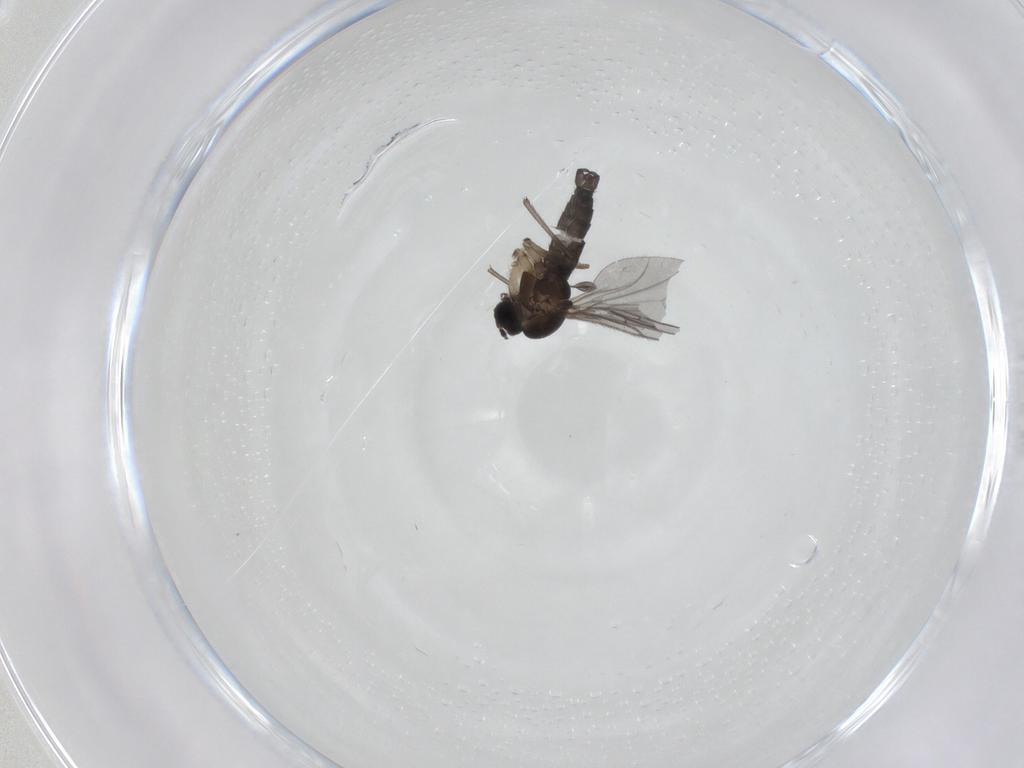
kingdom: Animalia
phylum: Arthropoda
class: Insecta
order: Diptera
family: Sciaridae
